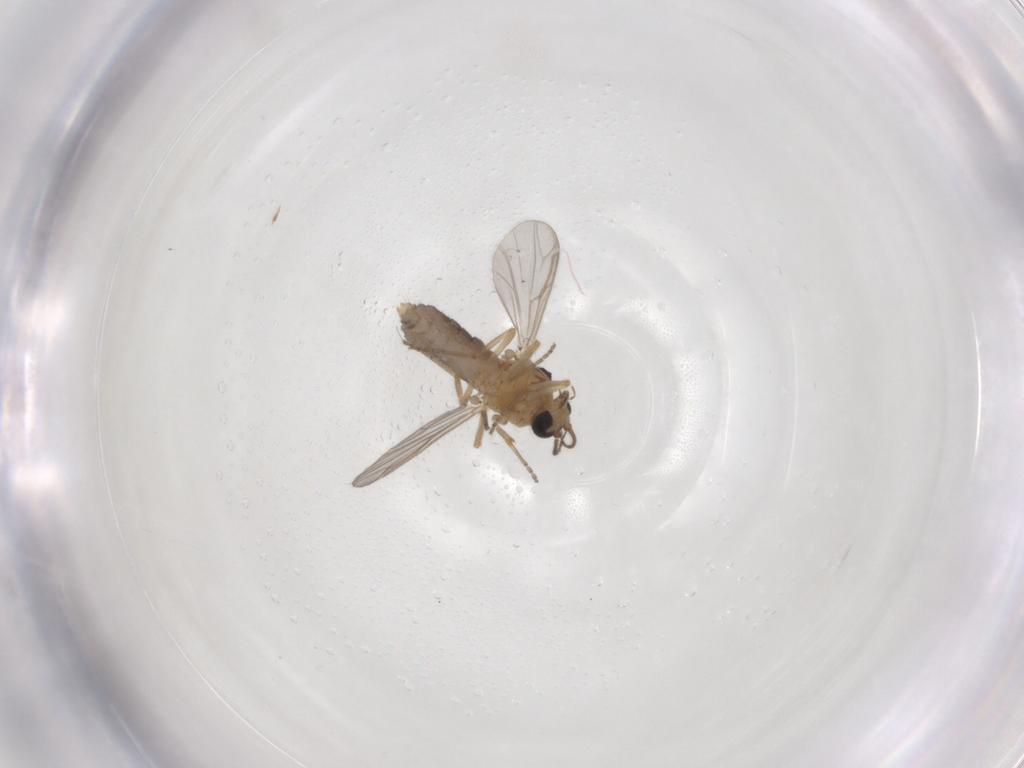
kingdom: Animalia
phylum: Arthropoda
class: Insecta
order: Diptera
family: Ceratopogonidae
